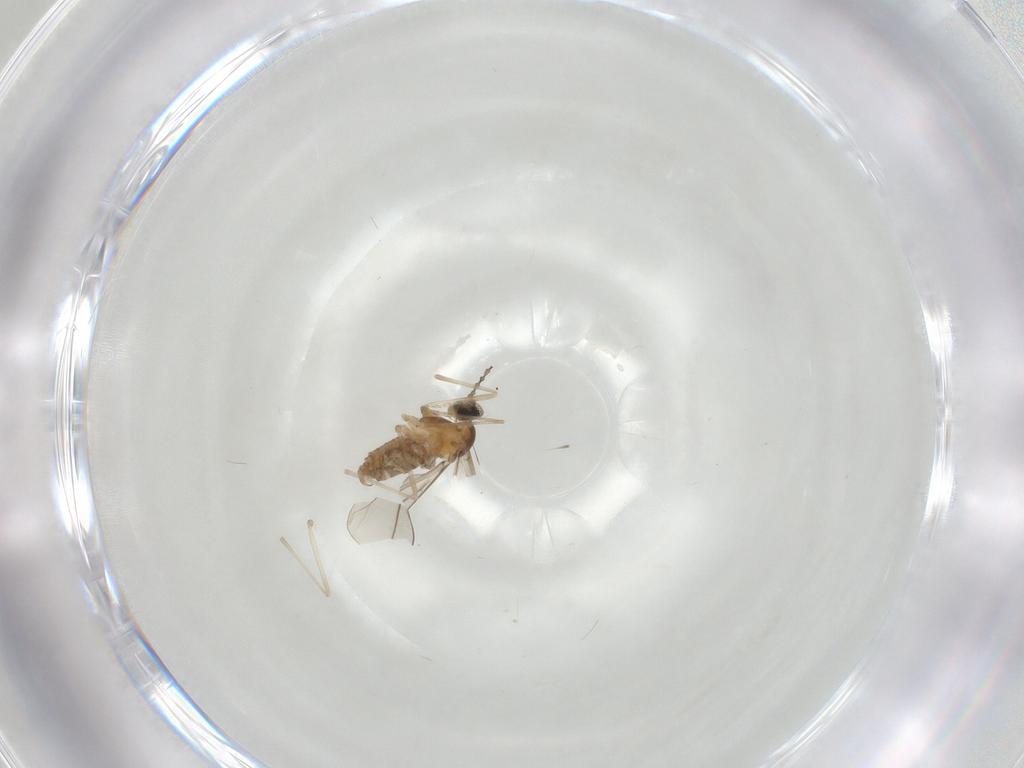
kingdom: Animalia
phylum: Arthropoda
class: Insecta
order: Diptera
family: Cecidomyiidae
